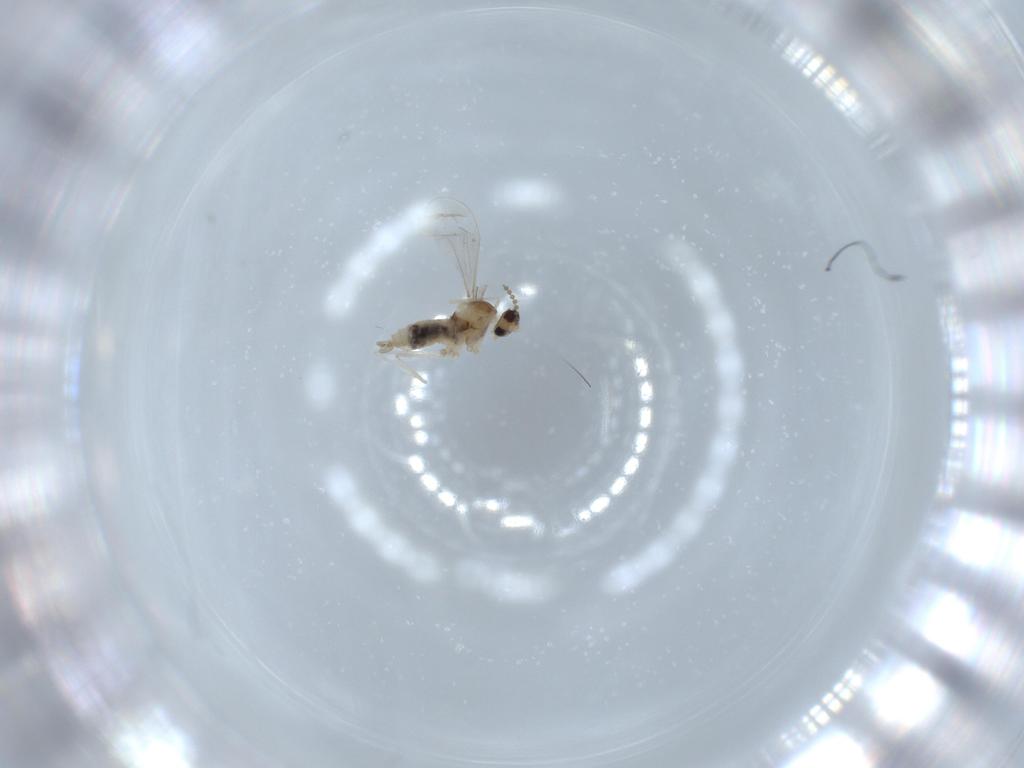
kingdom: Animalia
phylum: Arthropoda
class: Insecta
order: Diptera
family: Cecidomyiidae
